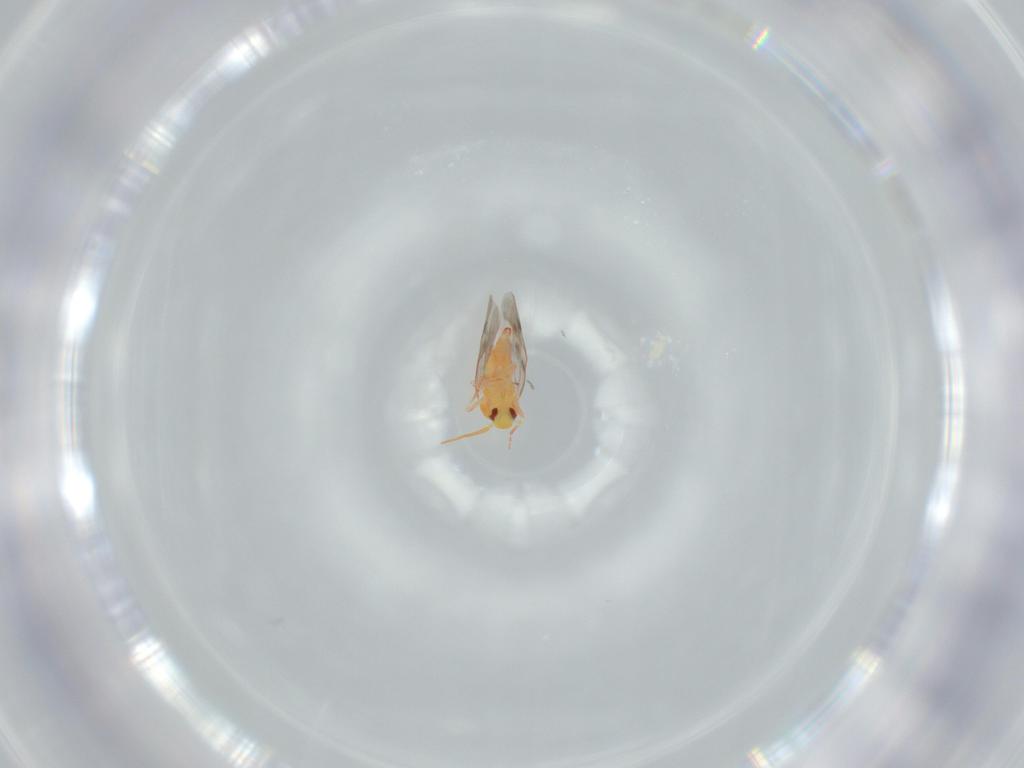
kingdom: Animalia
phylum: Arthropoda
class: Insecta
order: Hemiptera
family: Aleyrodidae
